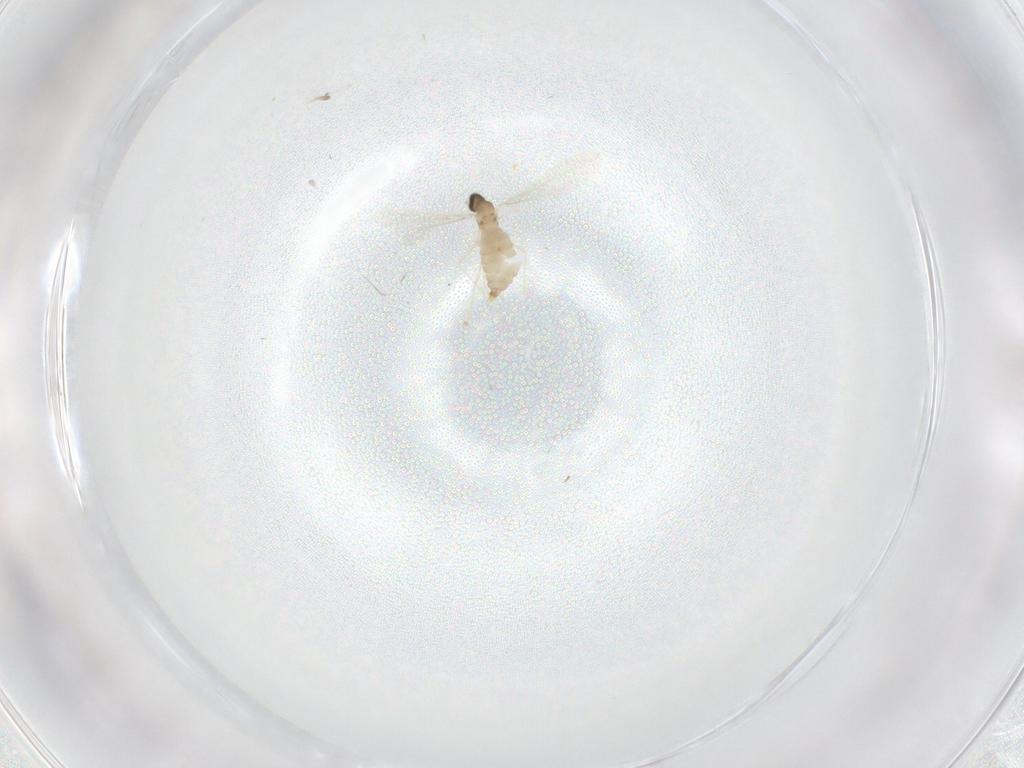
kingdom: Animalia
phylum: Arthropoda
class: Insecta
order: Diptera
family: Cecidomyiidae
